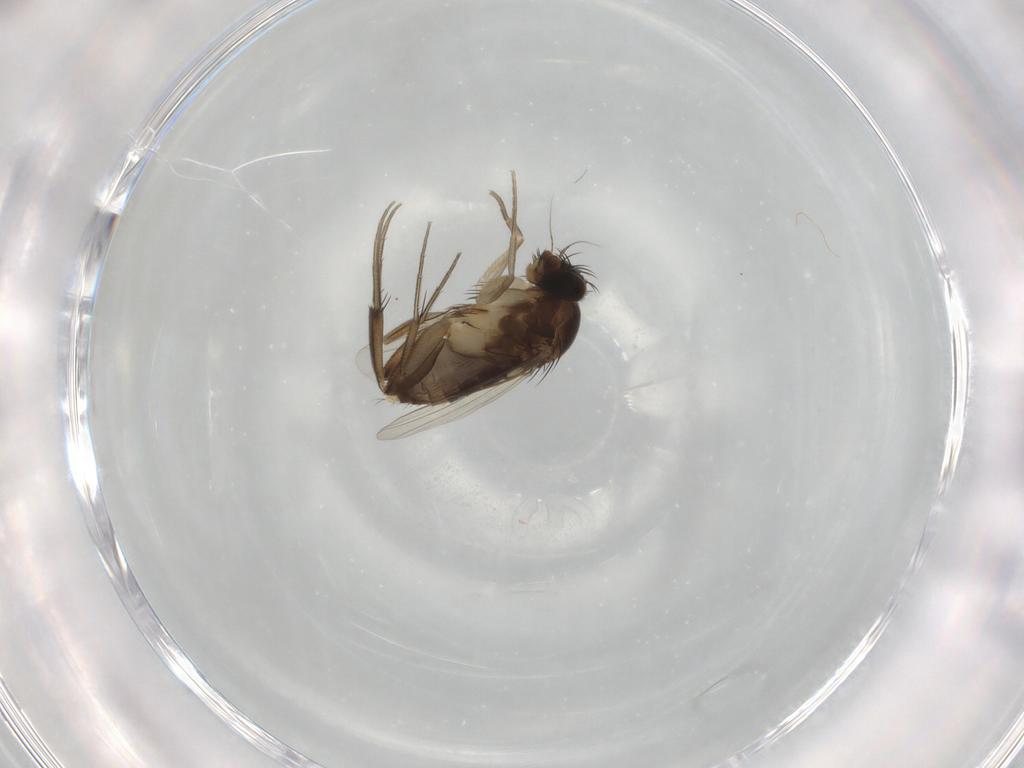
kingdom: Animalia
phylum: Arthropoda
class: Insecta
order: Diptera
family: Phoridae
